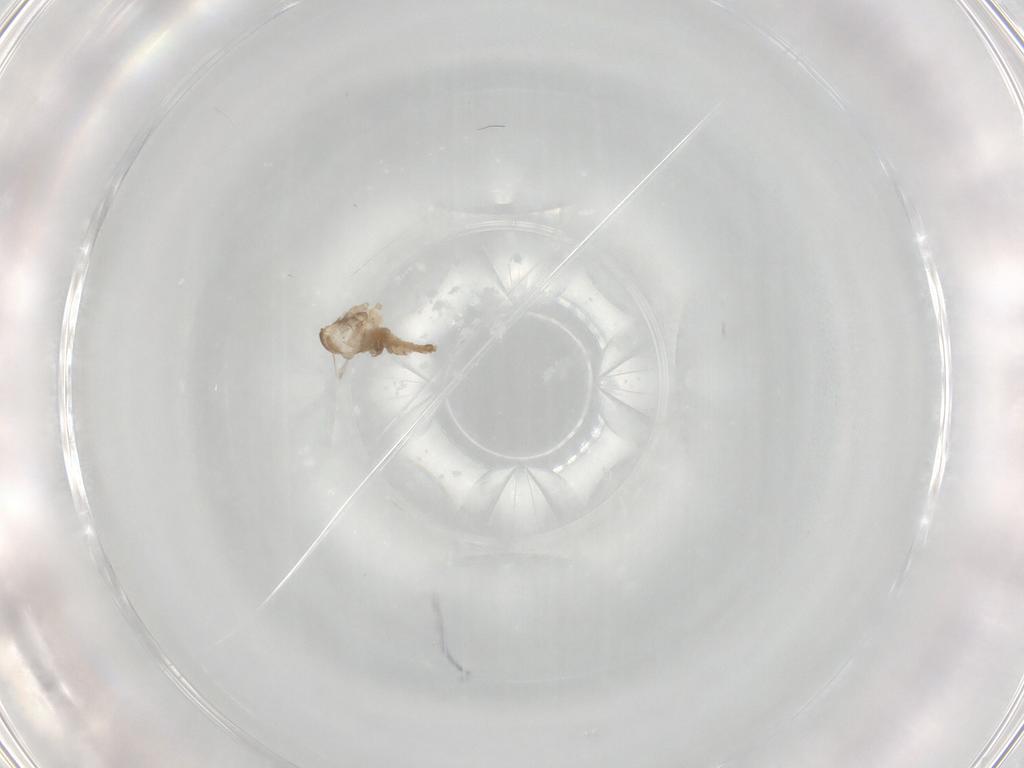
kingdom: Animalia
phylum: Arthropoda
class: Insecta
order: Diptera
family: Cecidomyiidae
